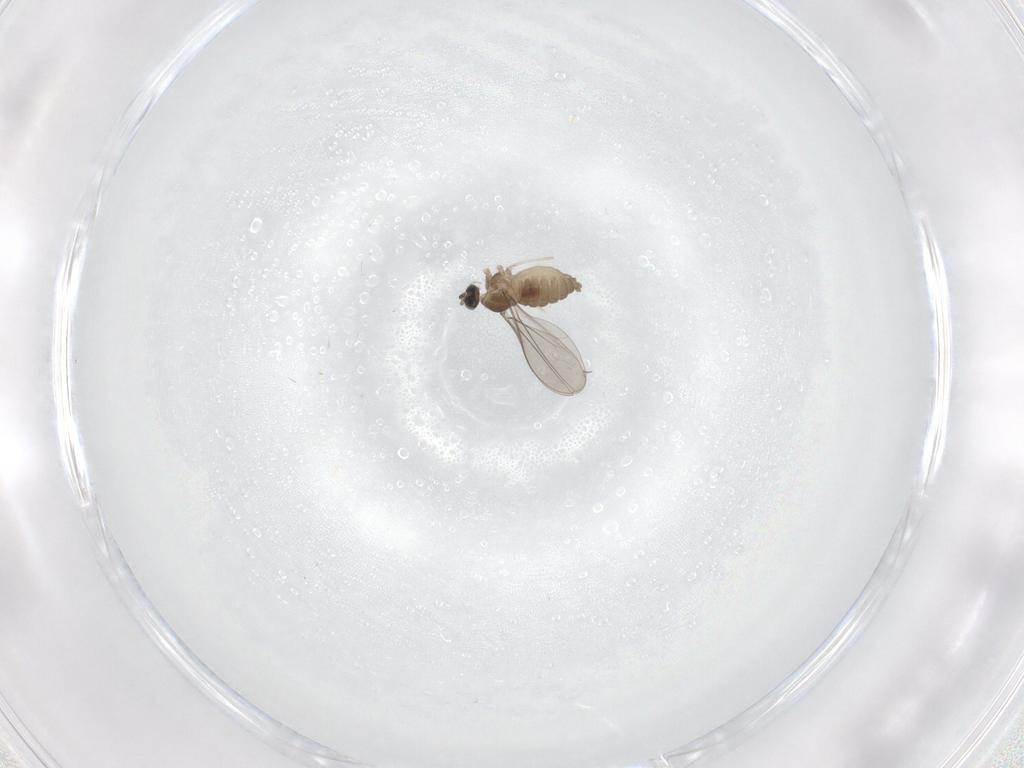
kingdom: Animalia
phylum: Arthropoda
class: Insecta
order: Diptera
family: Cecidomyiidae
